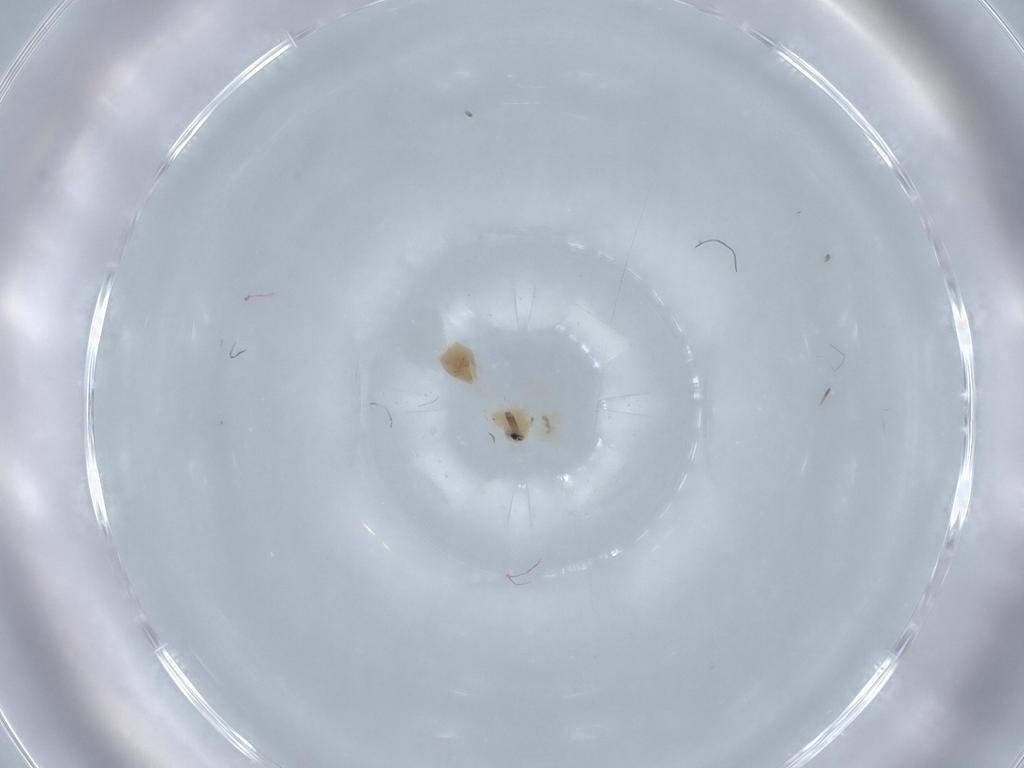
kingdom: Animalia
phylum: Arthropoda
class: Insecta
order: Hemiptera
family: Aleyrodidae
